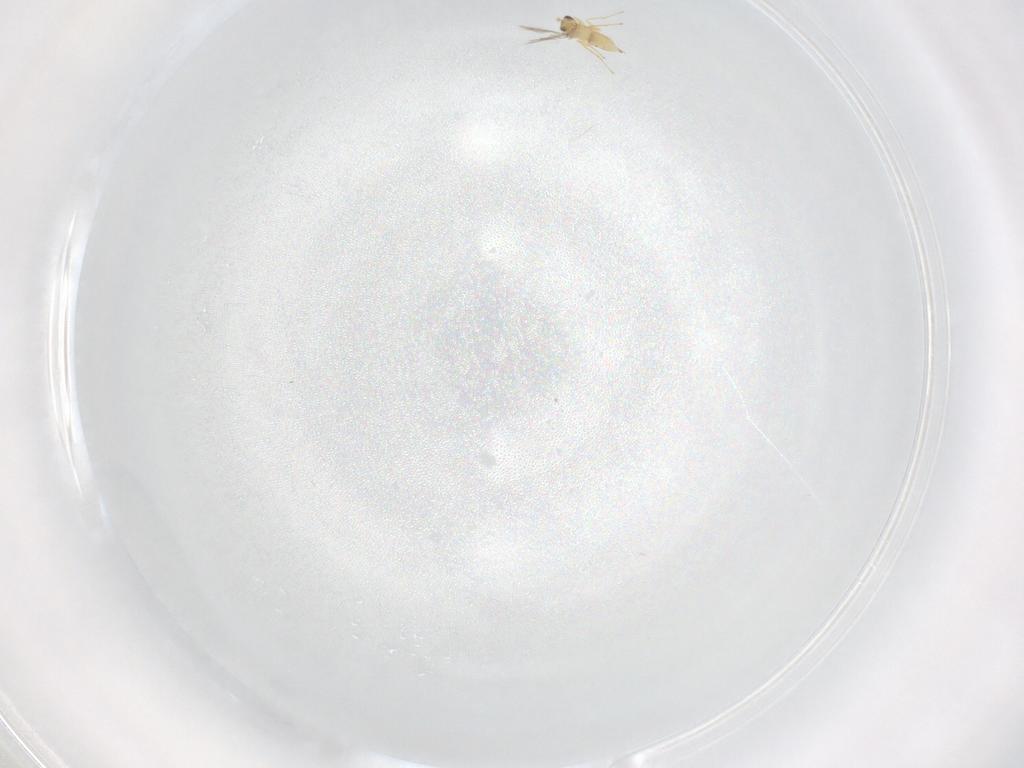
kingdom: Animalia
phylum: Arthropoda
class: Insecta
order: Hymenoptera
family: Mymaridae
